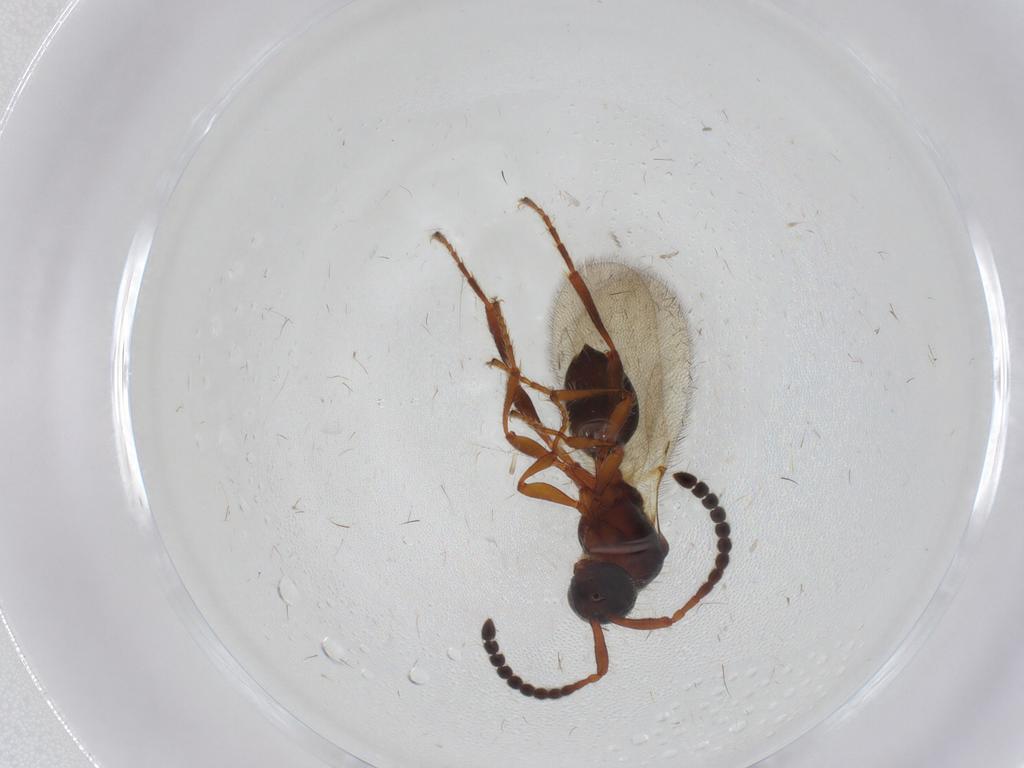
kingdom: Animalia
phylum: Arthropoda
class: Insecta
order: Hymenoptera
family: Diapriidae
